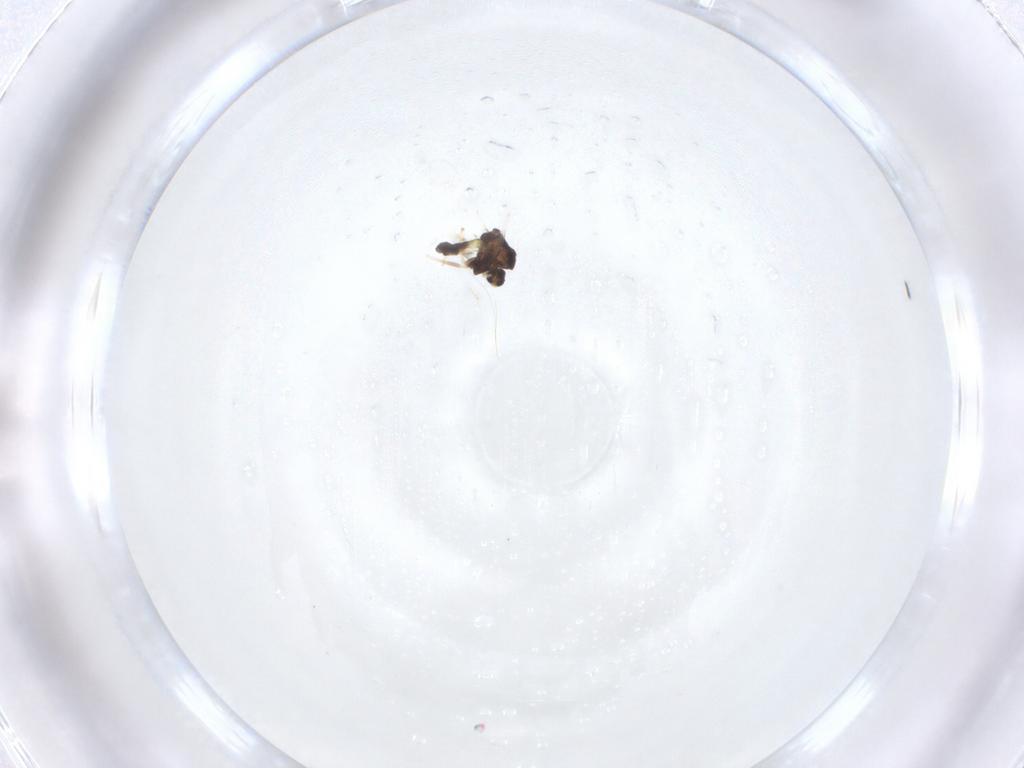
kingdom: Animalia
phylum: Arthropoda
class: Insecta
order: Diptera
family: Chironomidae
